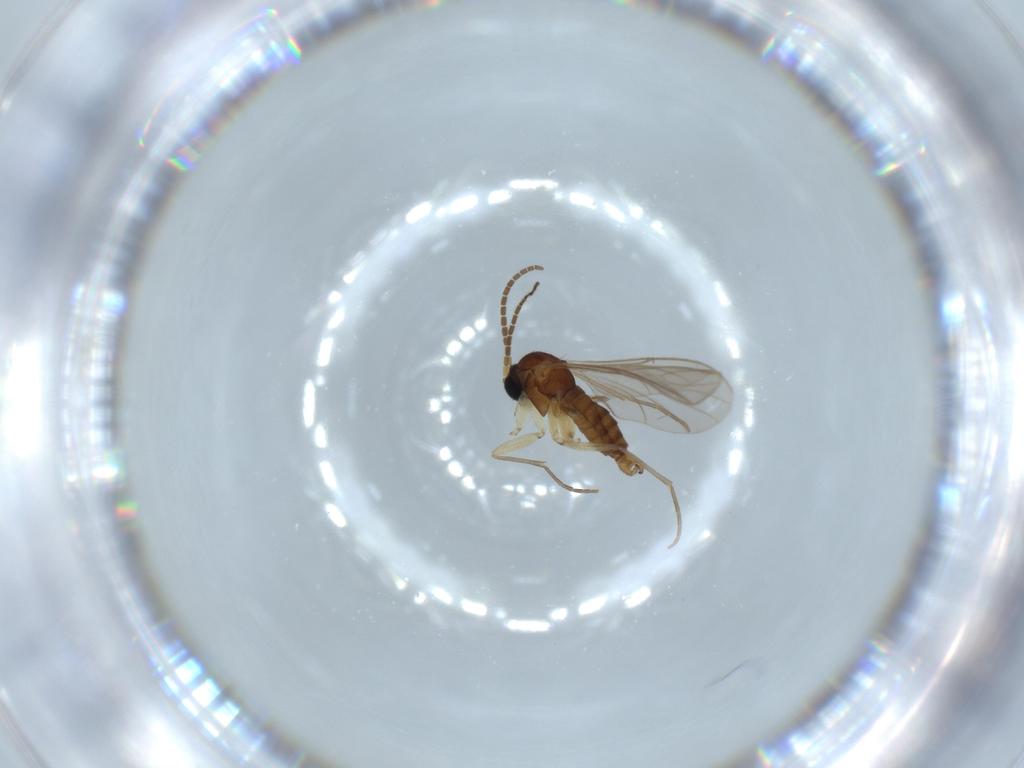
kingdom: Animalia
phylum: Arthropoda
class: Insecta
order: Diptera
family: Sciaridae
